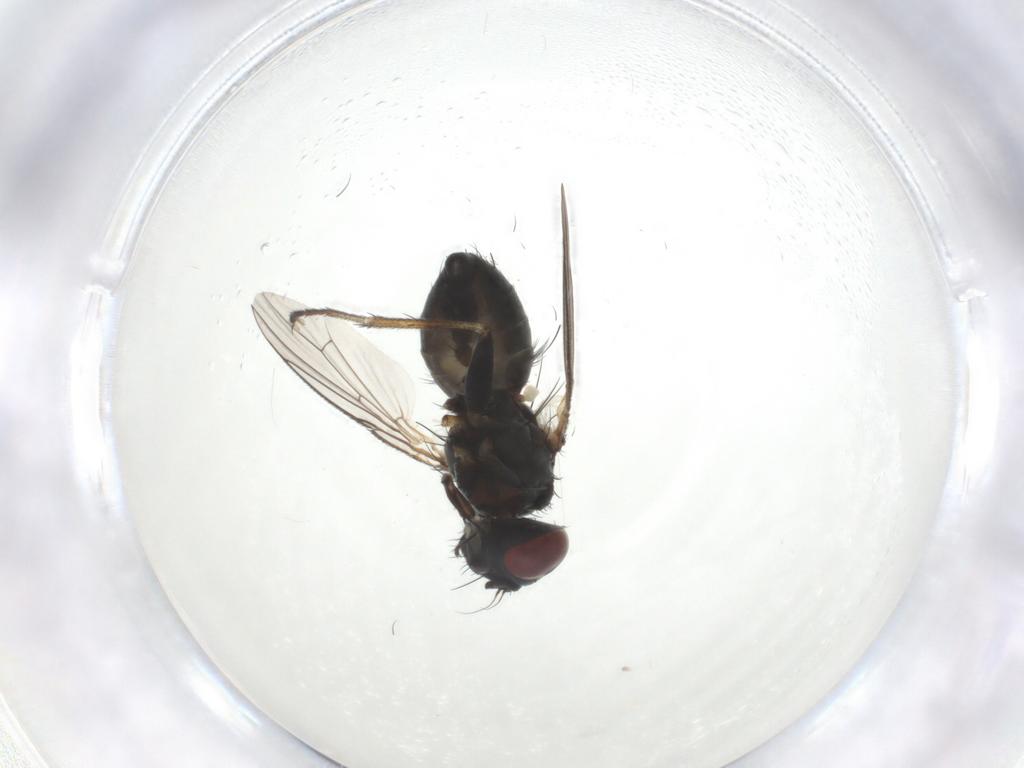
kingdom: Animalia
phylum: Arthropoda
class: Insecta
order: Diptera
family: Muscidae
